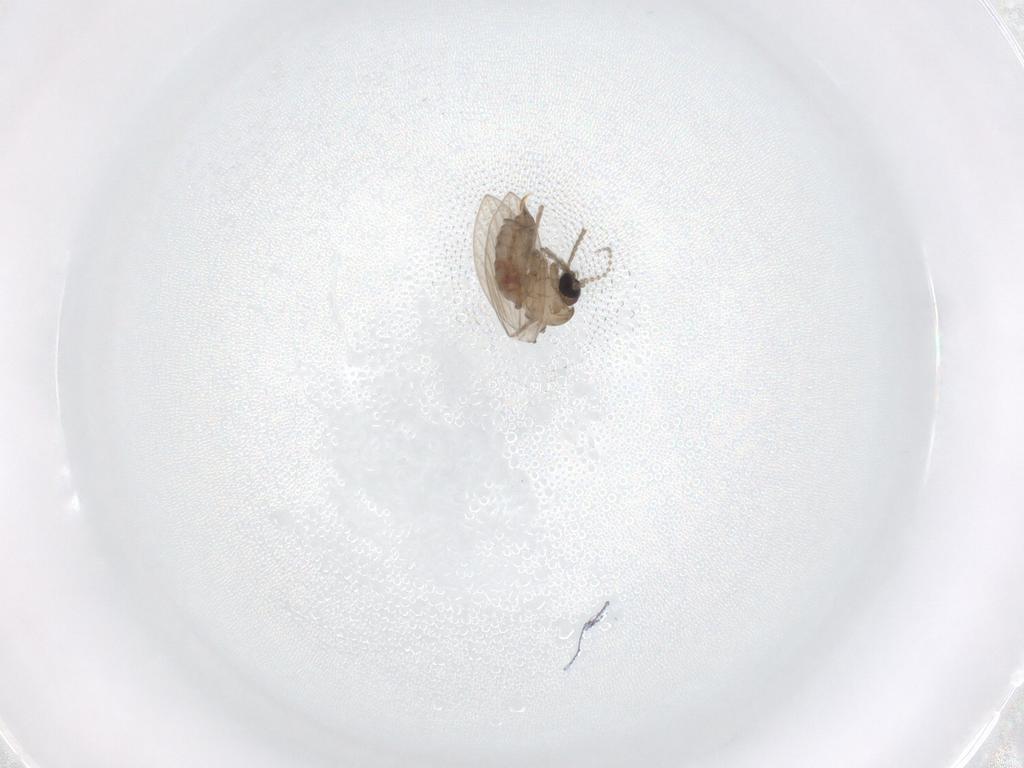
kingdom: Animalia
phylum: Arthropoda
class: Insecta
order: Diptera
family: Psychodidae
